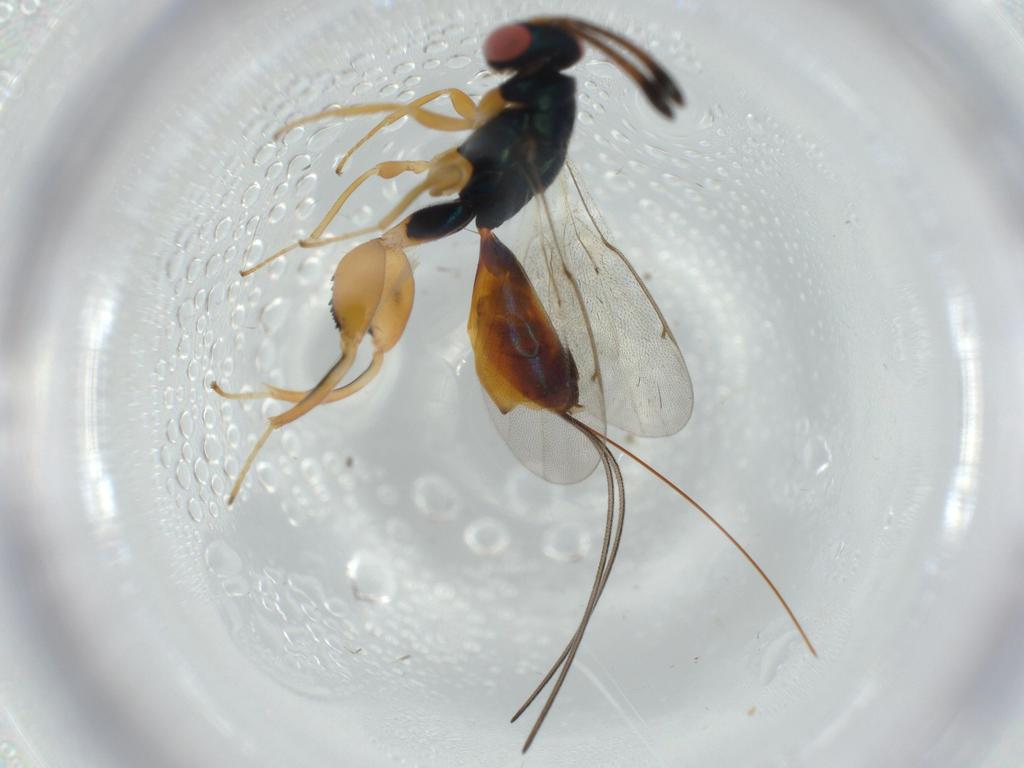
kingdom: Animalia
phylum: Arthropoda
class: Insecta
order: Hymenoptera
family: Torymidae
